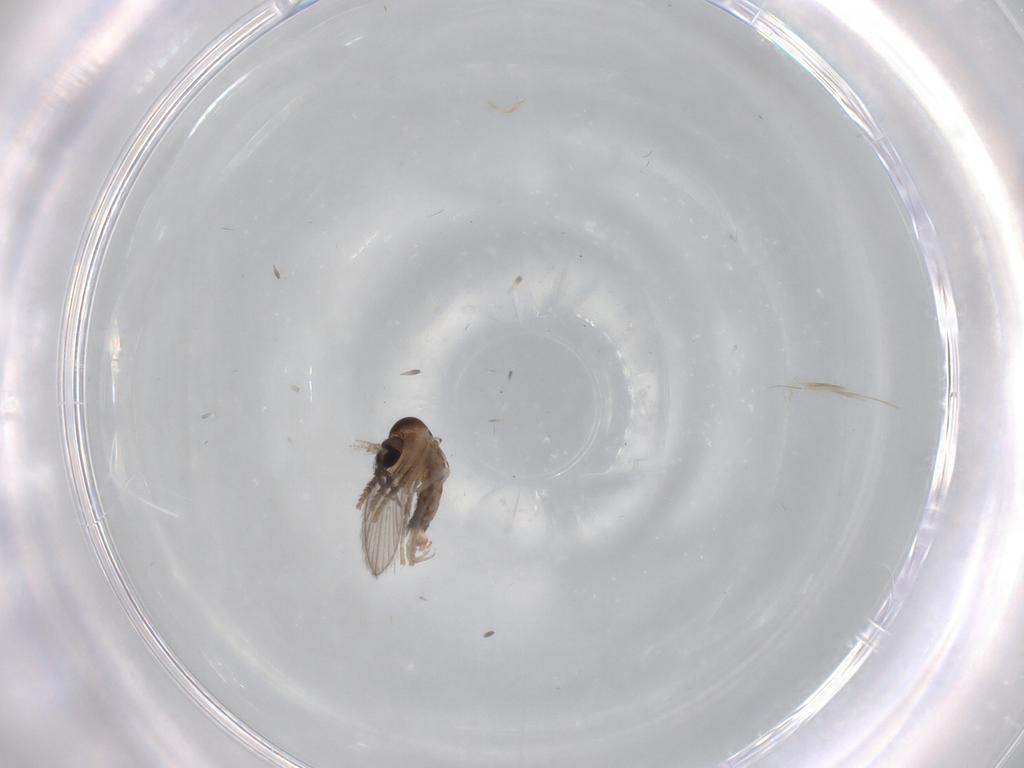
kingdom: Animalia
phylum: Arthropoda
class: Insecta
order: Diptera
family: Psychodidae
